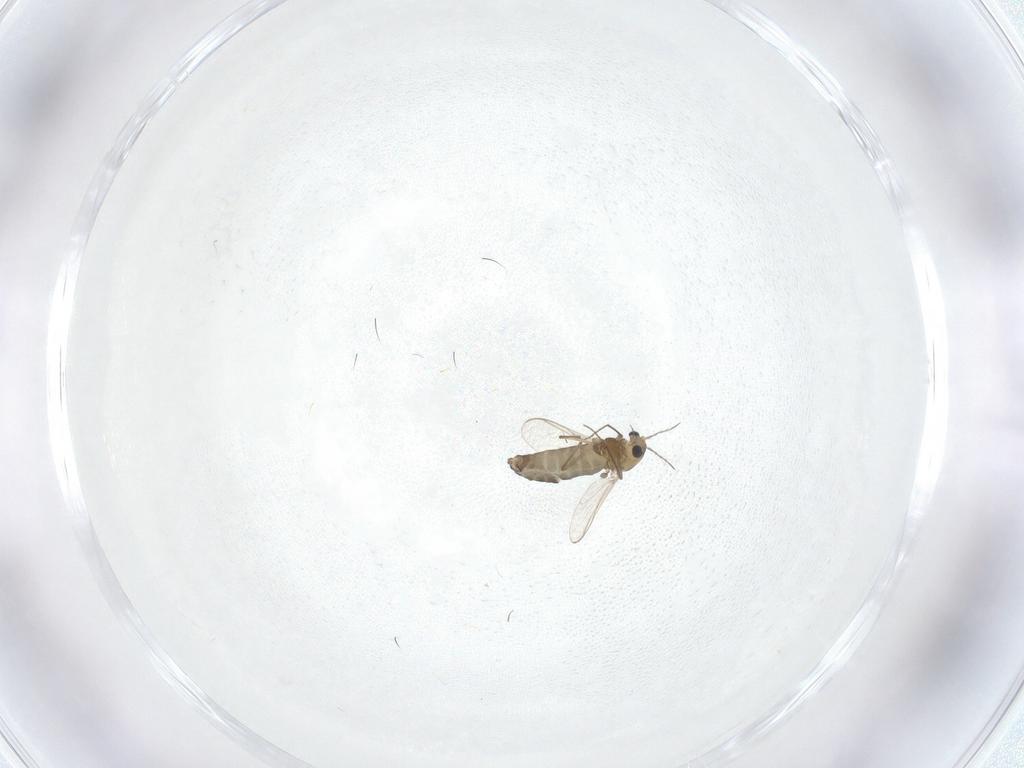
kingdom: Animalia
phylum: Arthropoda
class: Insecta
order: Diptera
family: Chironomidae
